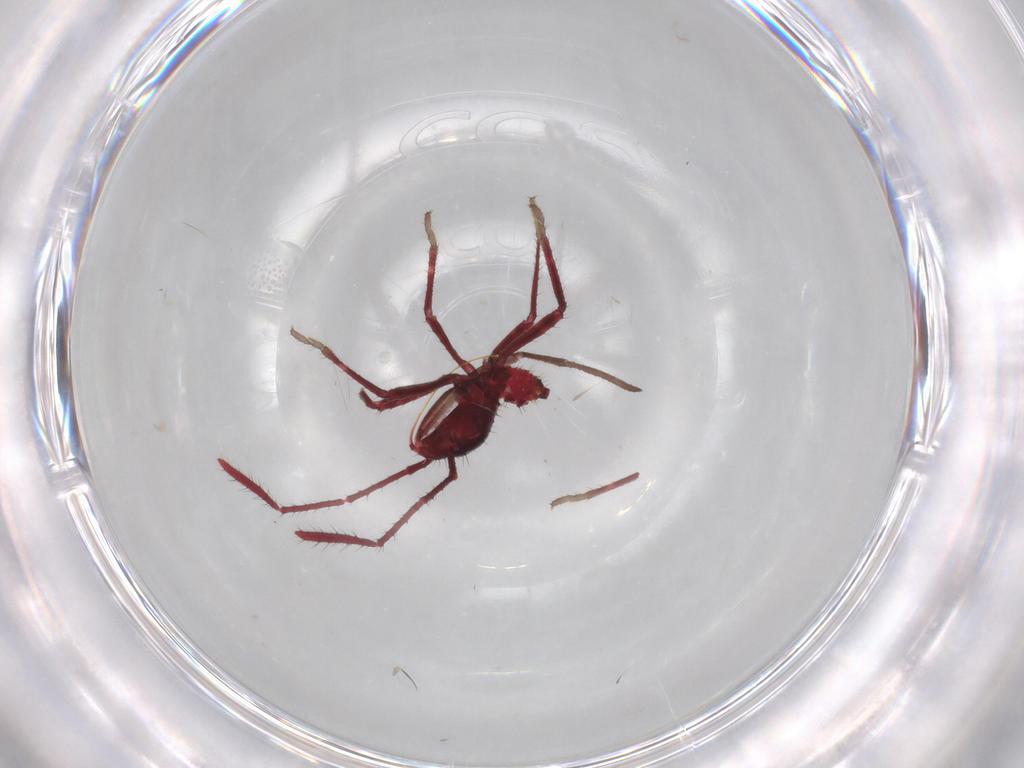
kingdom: Animalia
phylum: Arthropoda
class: Insecta
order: Hemiptera
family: Coreidae
